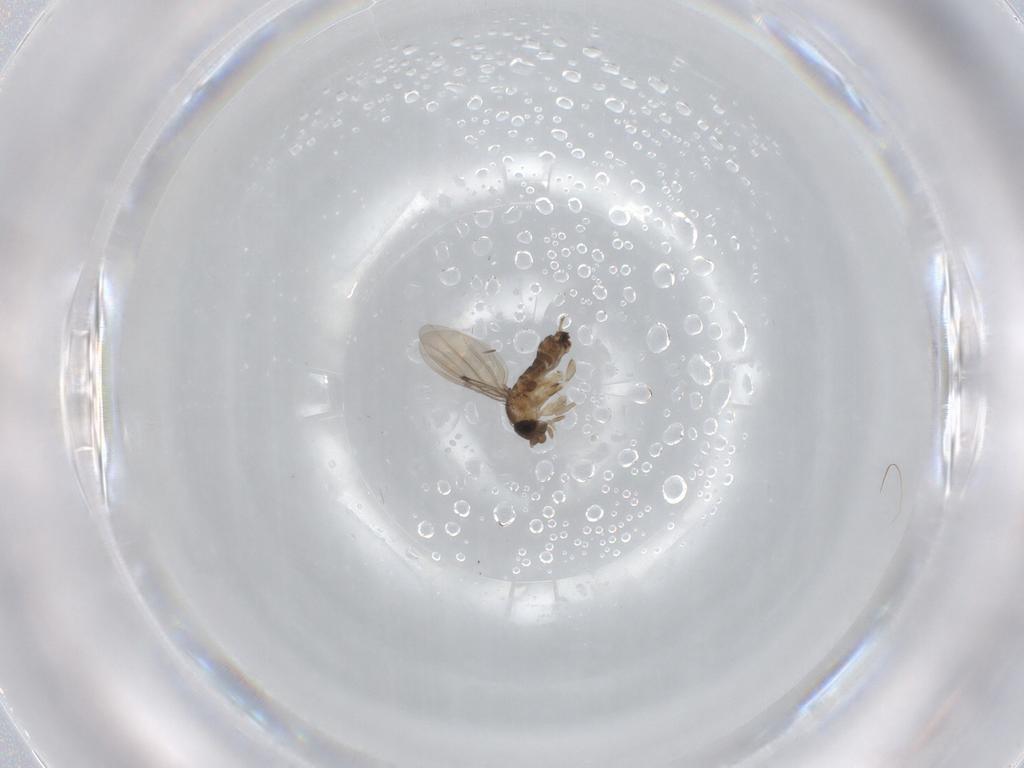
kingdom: Animalia
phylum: Arthropoda
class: Insecta
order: Diptera
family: Phoridae
